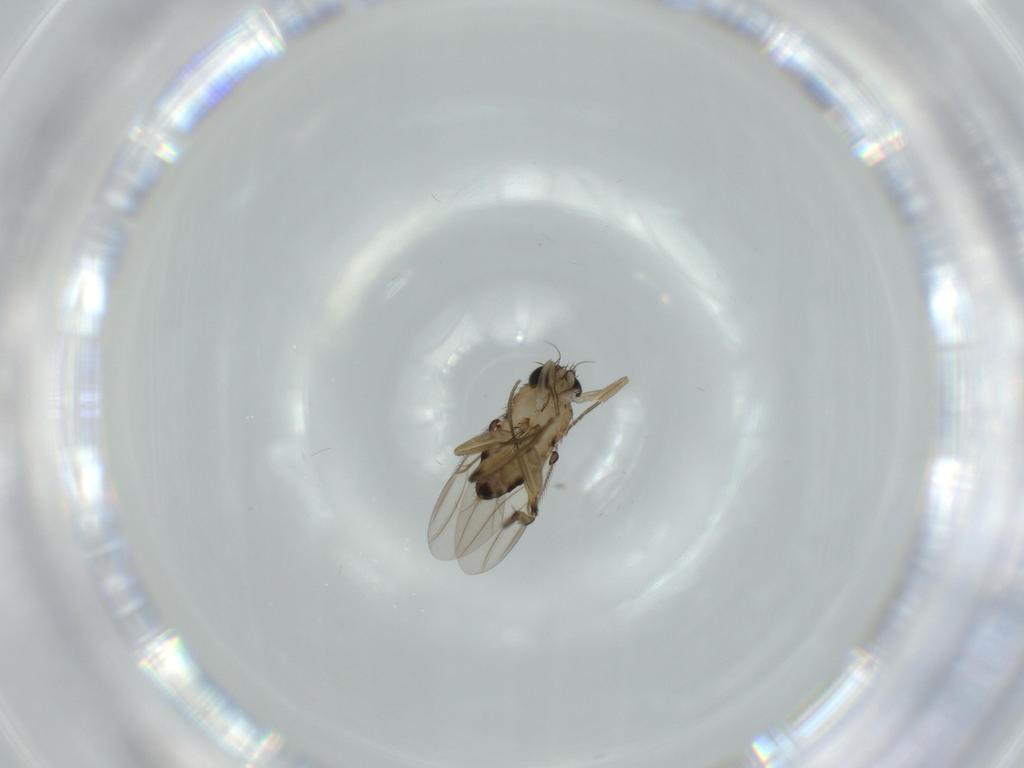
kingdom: Animalia
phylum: Arthropoda
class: Insecta
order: Diptera
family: Phoridae
